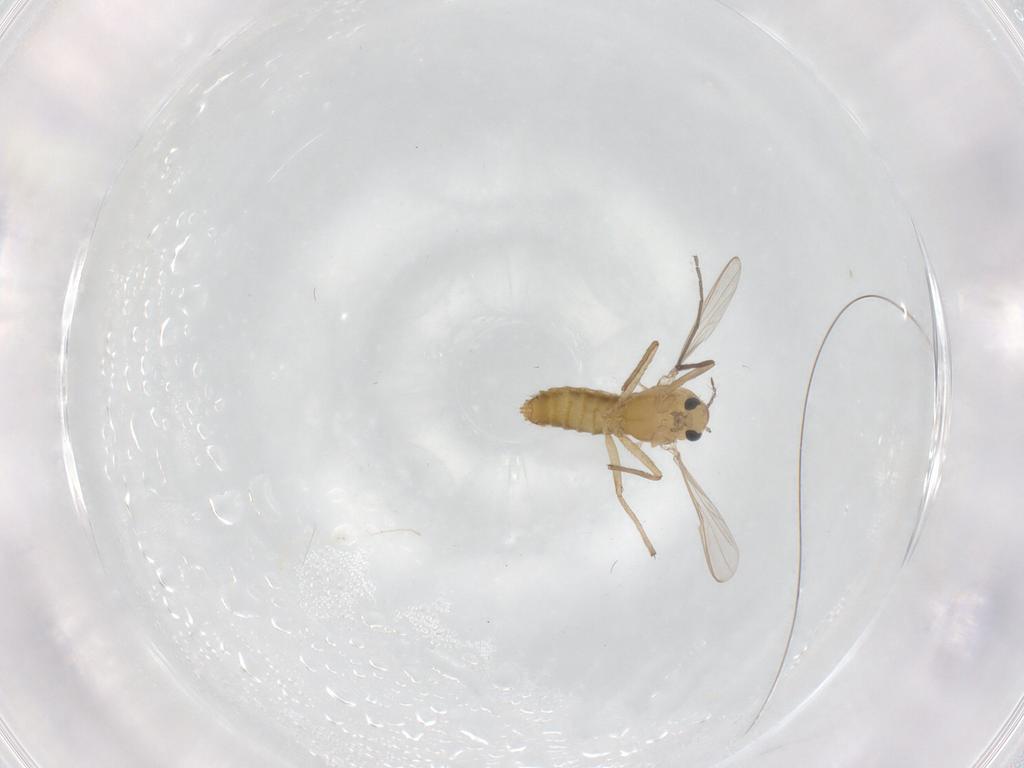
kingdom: Animalia
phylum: Arthropoda
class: Insecta
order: Diptera
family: Chironomidae
